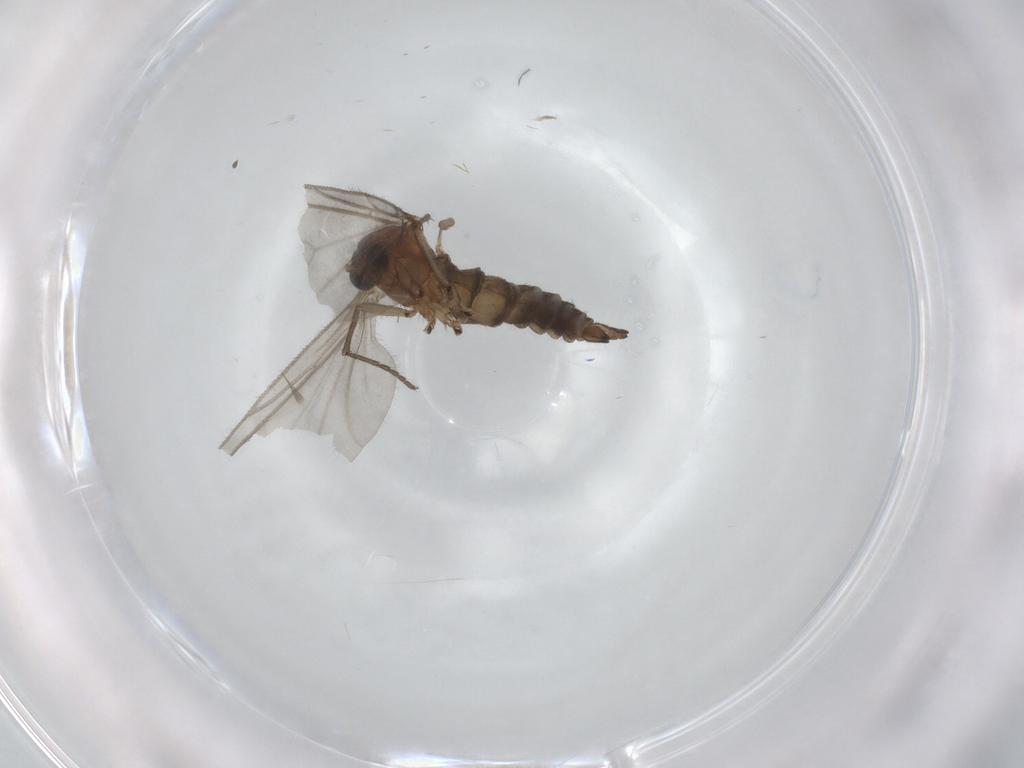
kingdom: Animalia
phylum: Arthropoda
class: Insecta
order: Diptera
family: Sciaridae
